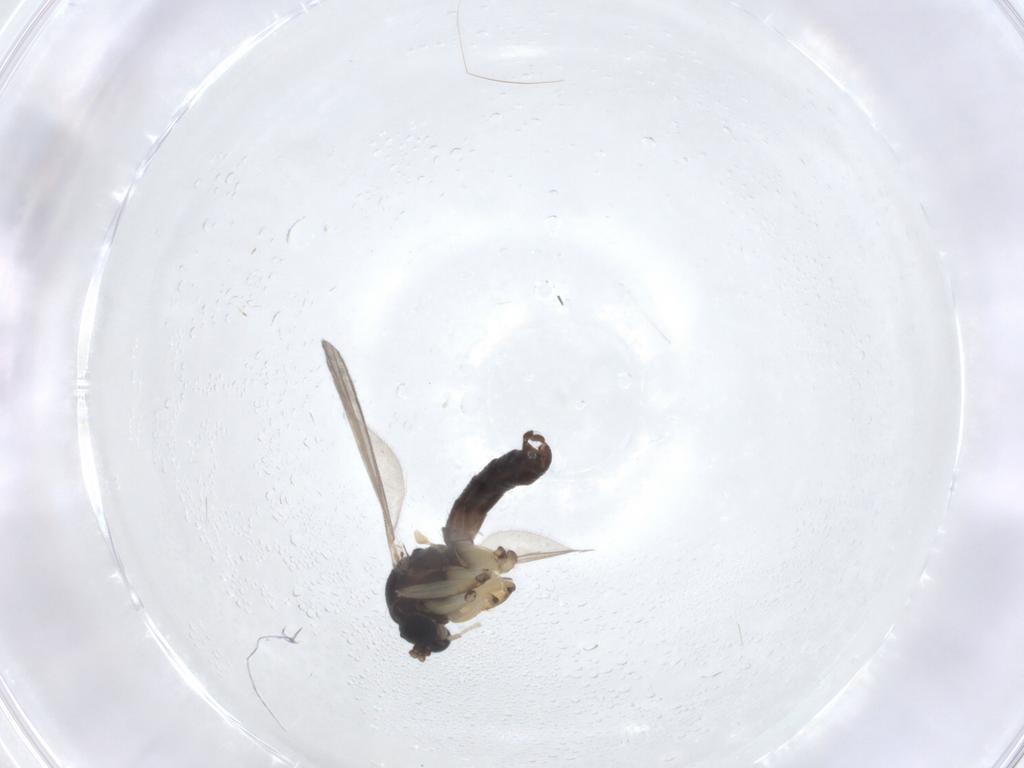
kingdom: Animalia
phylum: Arthropoda
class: Insecta
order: Diptera
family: Mycetophilidae
